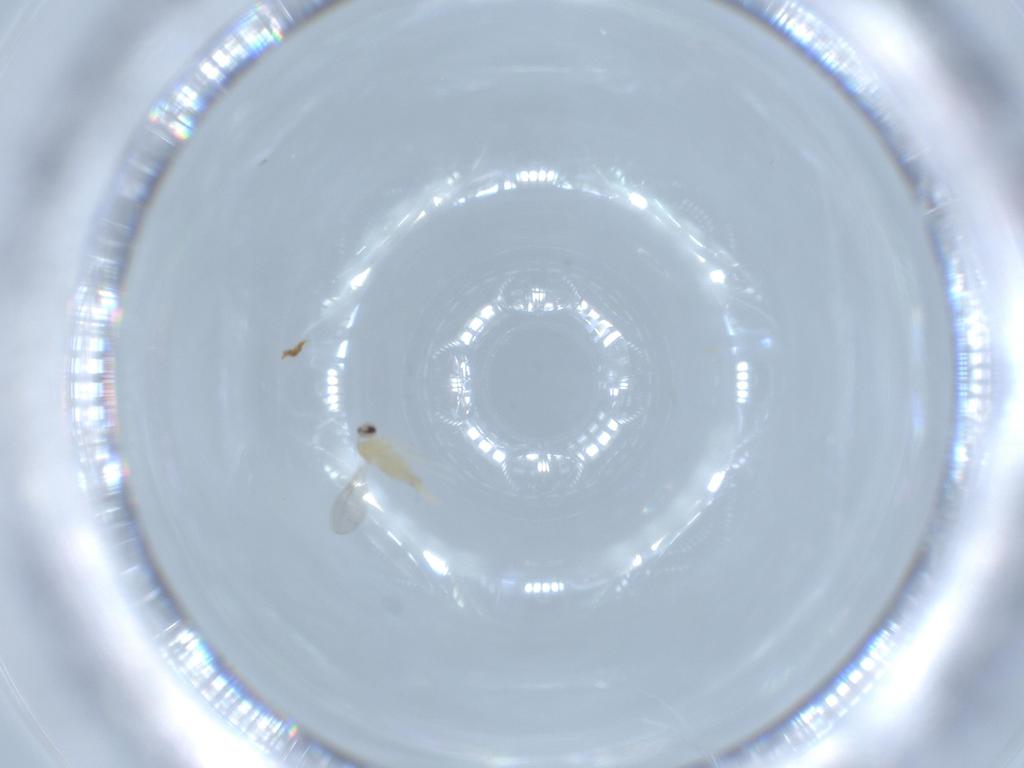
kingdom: Animalia
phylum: Arthropoda
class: Insecta
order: Diptera
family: Cecidomyiidae
